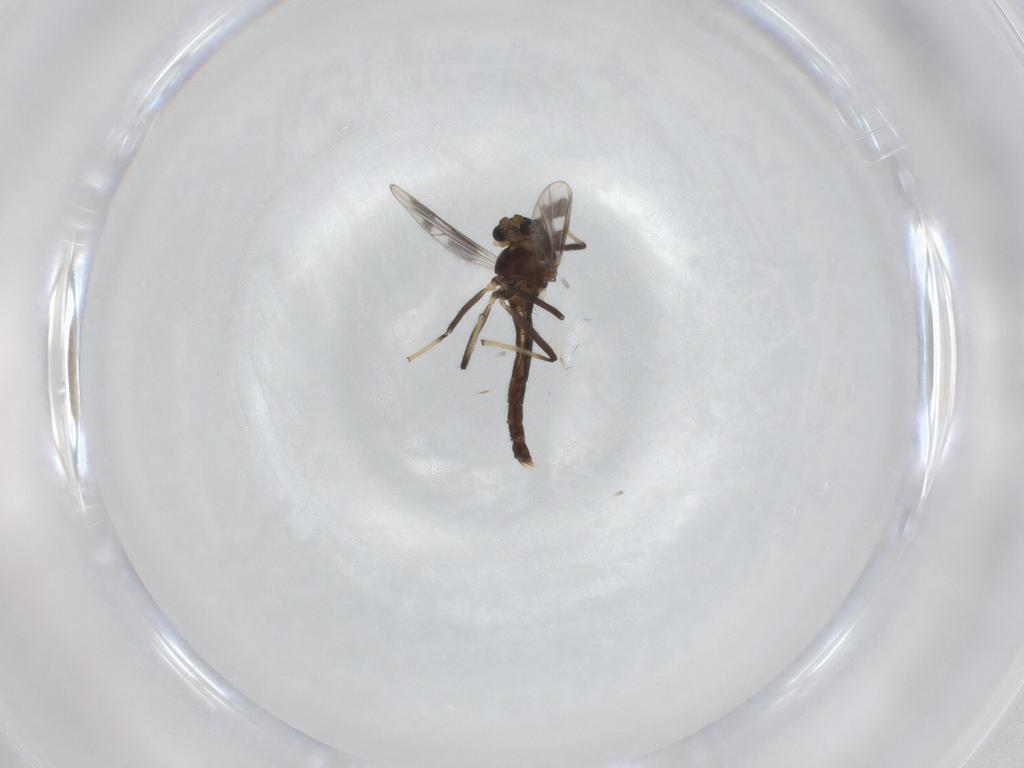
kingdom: Animalia
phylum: Arthropoda
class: Insecta
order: Diptera
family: Chironomidae
